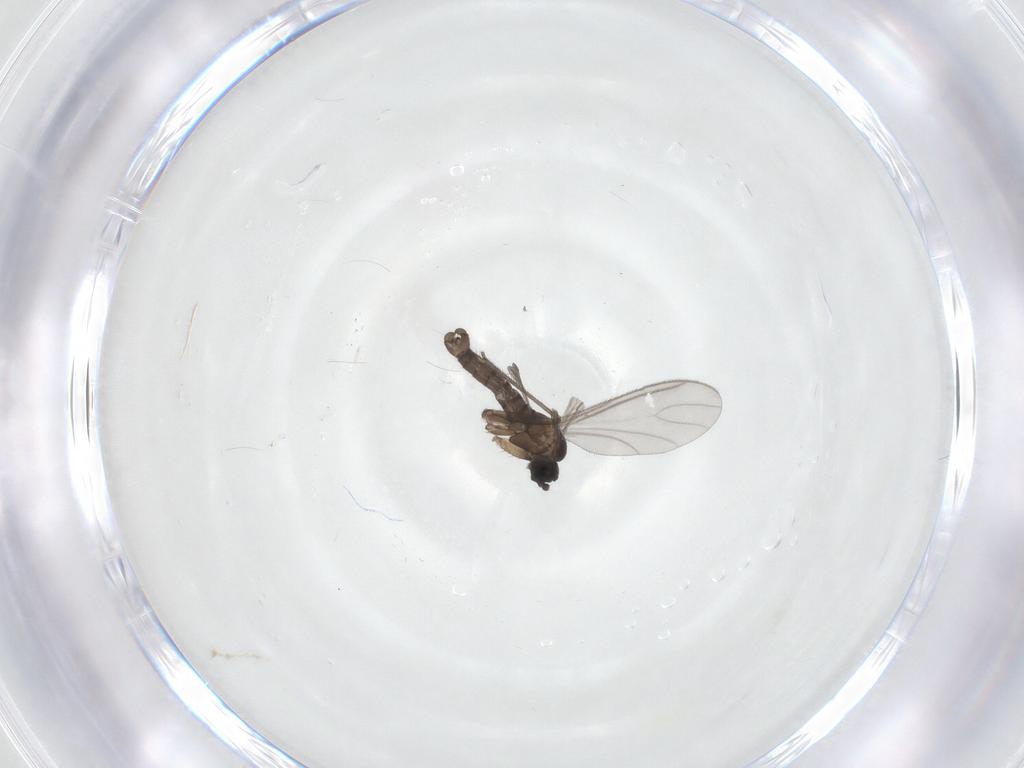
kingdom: Animalia
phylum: Arthropoda
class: Insecta
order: Diptera
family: Sciaridae
